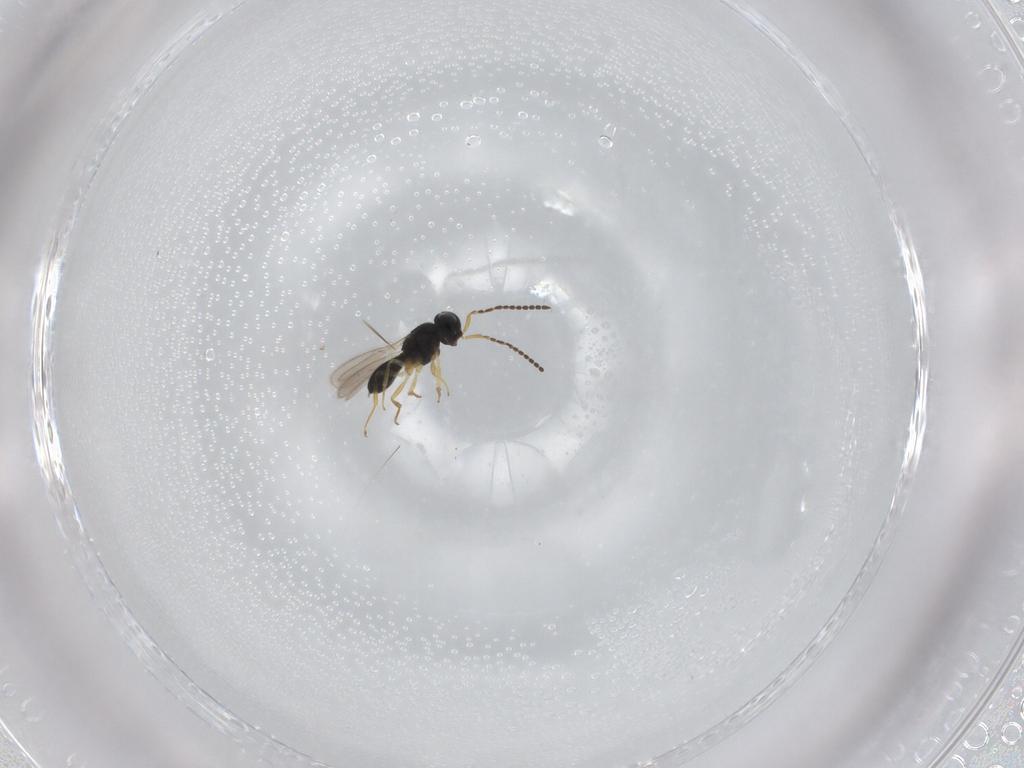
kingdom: Animalia
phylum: Arthropoda
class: Insecta
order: Hymenoptera
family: Scelionidae
